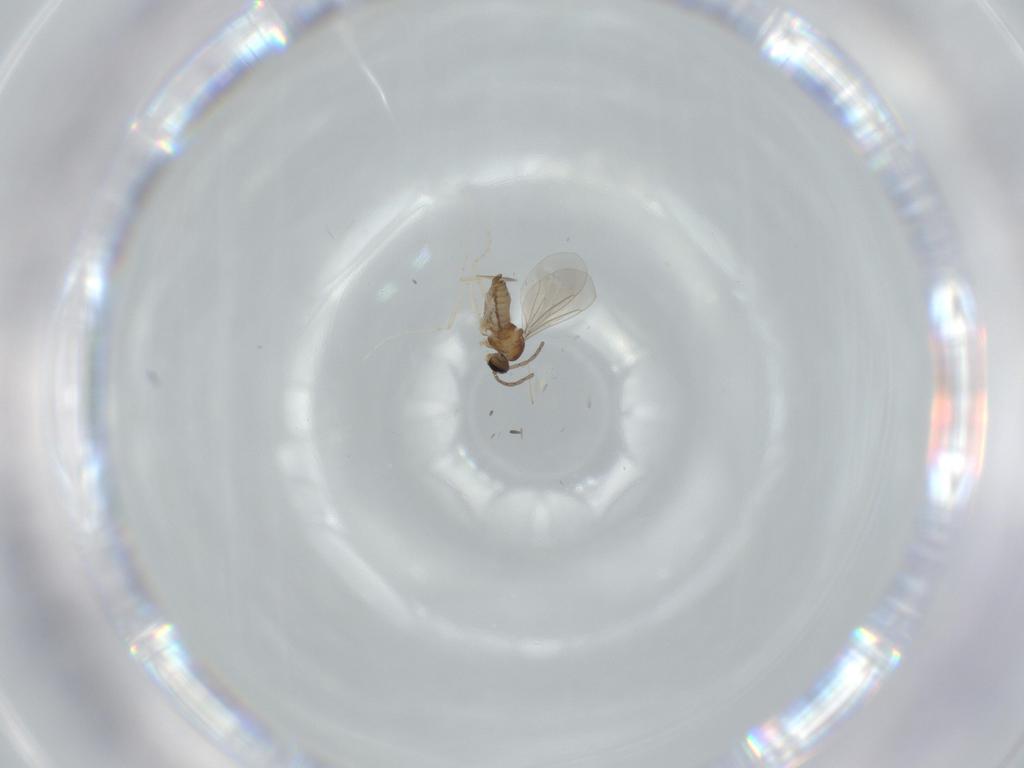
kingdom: Animalia
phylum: Arthropoda
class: Insecta
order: Diptera
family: Cecidomyiidae
